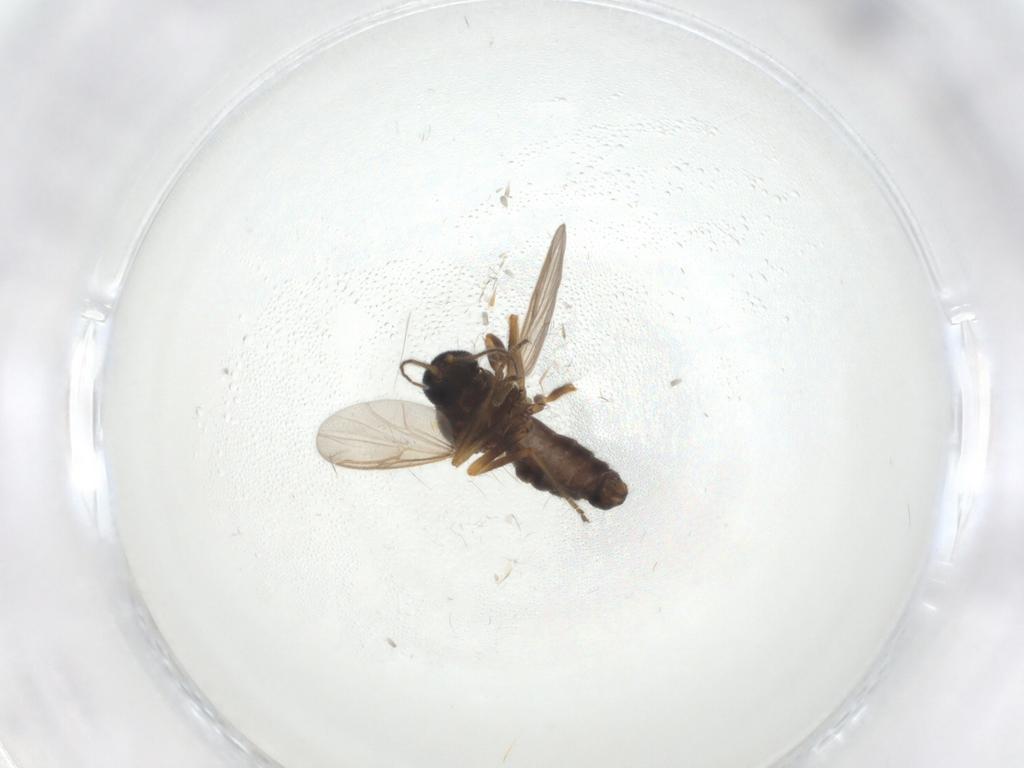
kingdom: Animalia
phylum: Arthropoda
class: Insecta
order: Diptera
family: Ceratopogonidae
